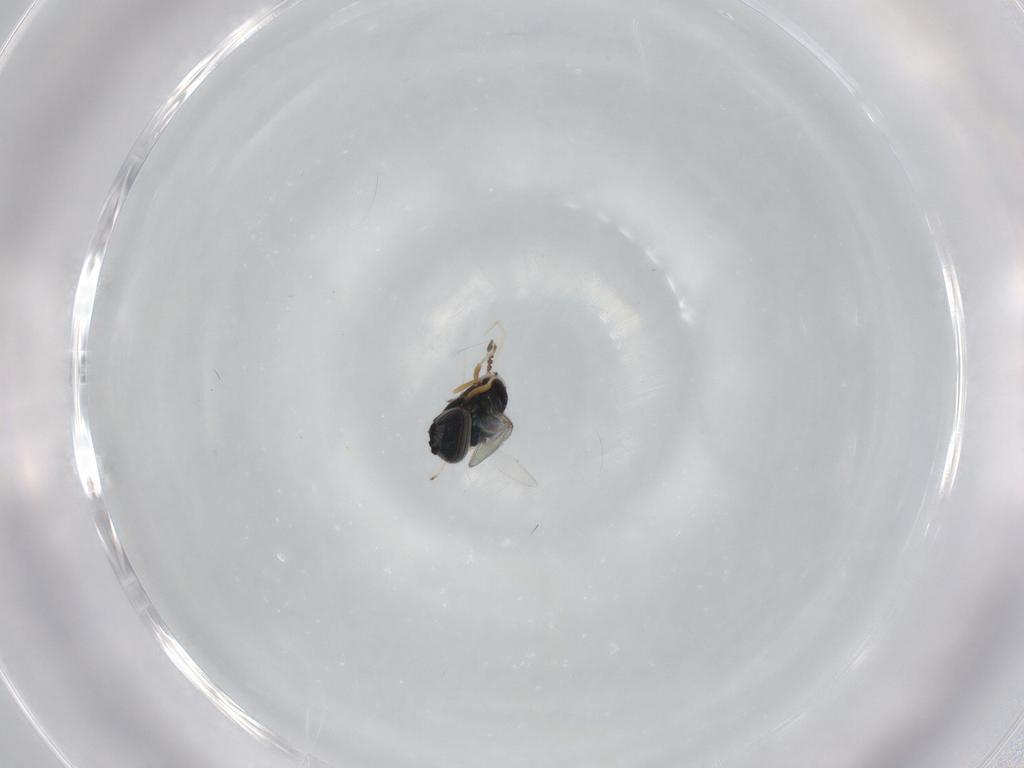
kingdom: Animalia
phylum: Arthropoda
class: Insecta
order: Hymenoptera
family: Eulophidae
